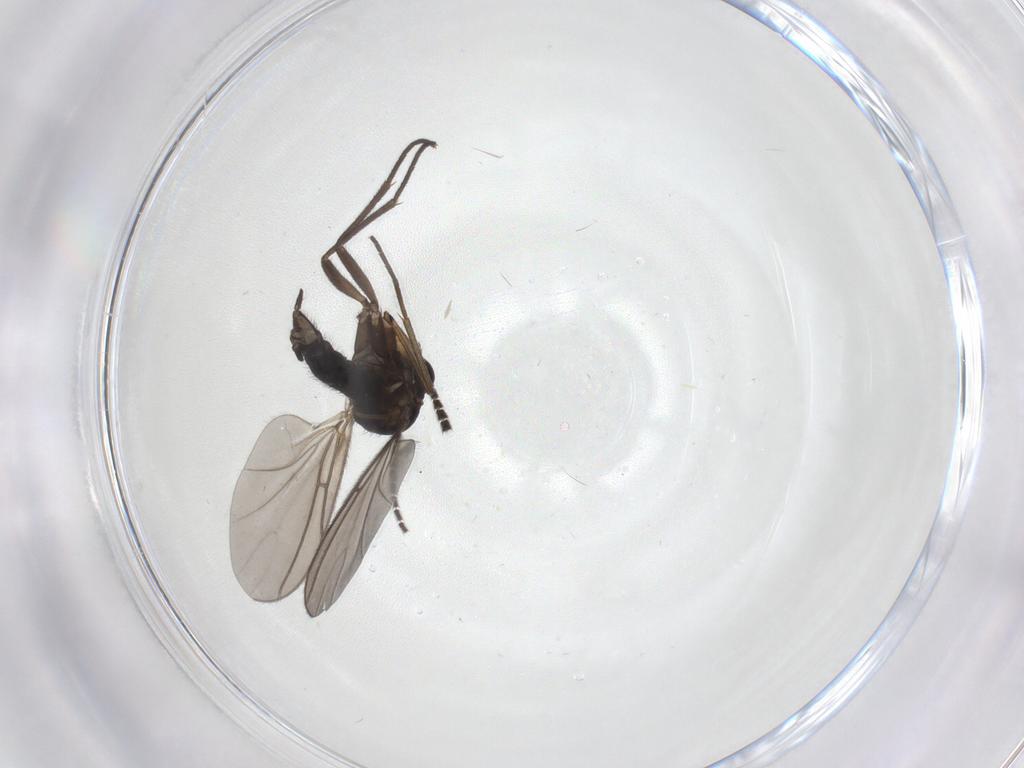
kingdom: Animalia
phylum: Arthropoda
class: Insecta
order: Diptera
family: Sciaridae
